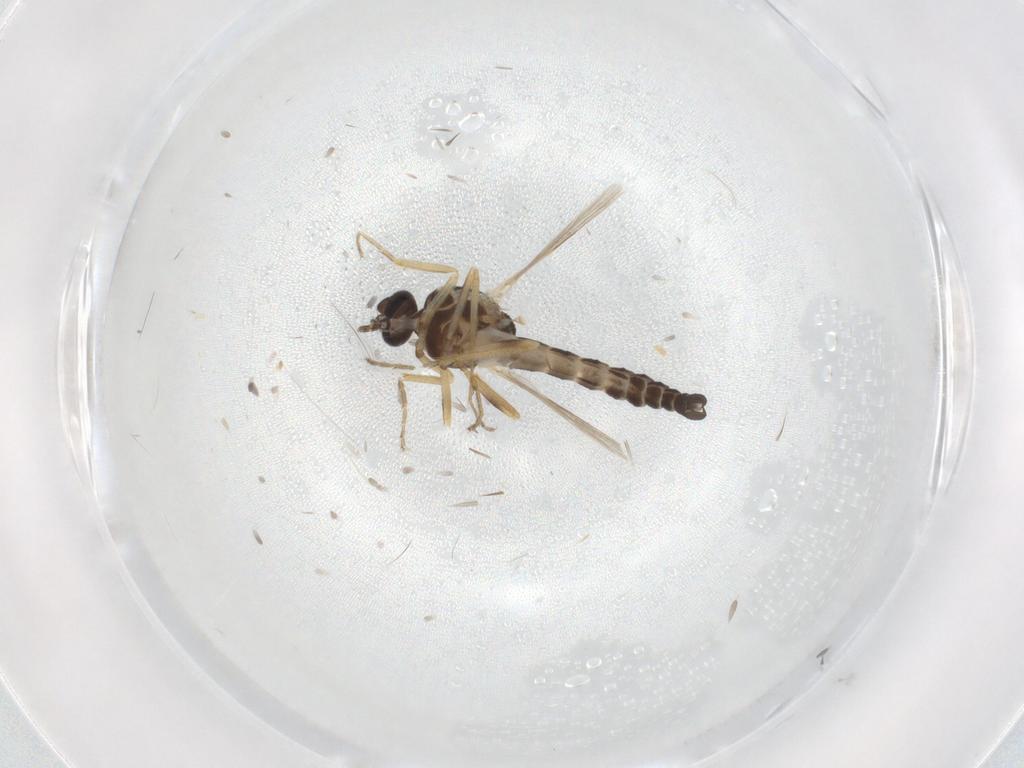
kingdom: Animalia
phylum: Arthropoda
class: Insecta
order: Diptera
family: Ceratopogonidae
